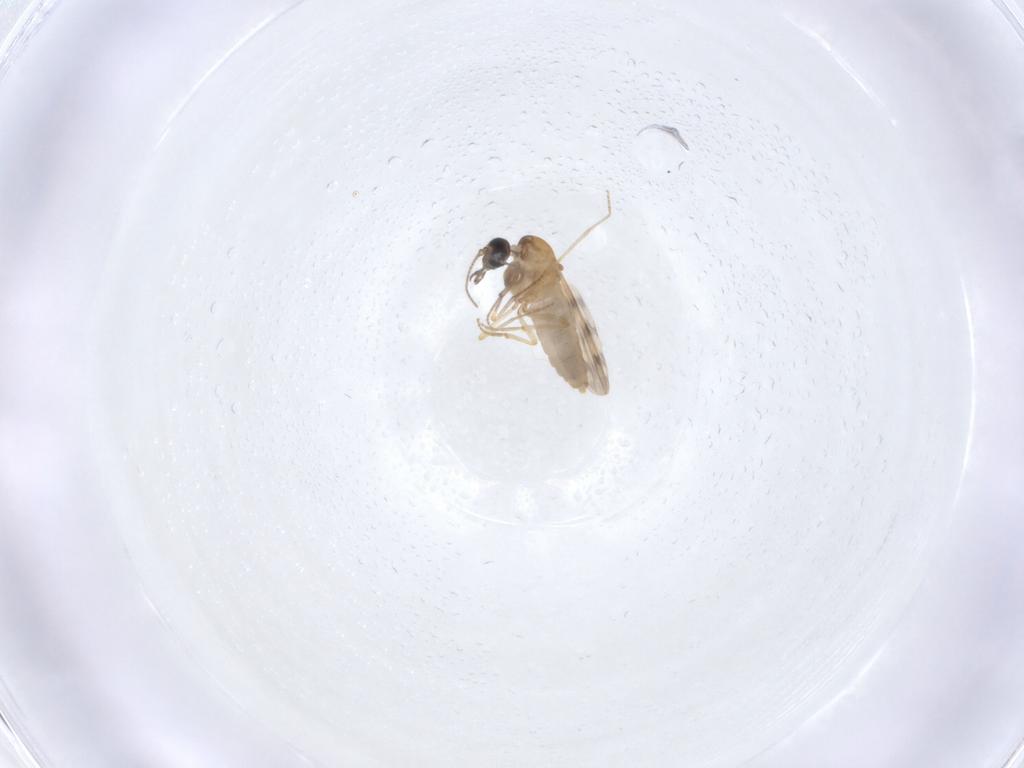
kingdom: Animalia
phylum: Arthropoda
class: Insecta
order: Diptera
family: Ceratopogonidae
